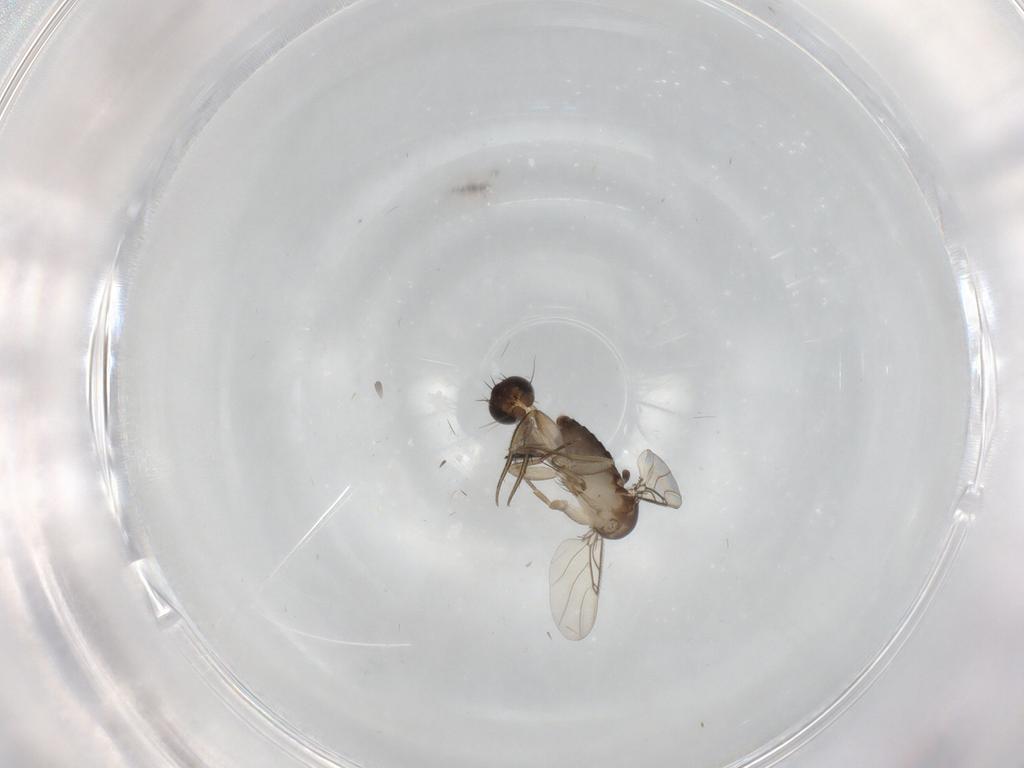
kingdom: Animalia
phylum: Arthropoda
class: Insecta
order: Diptera
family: Cecidomyiidae
